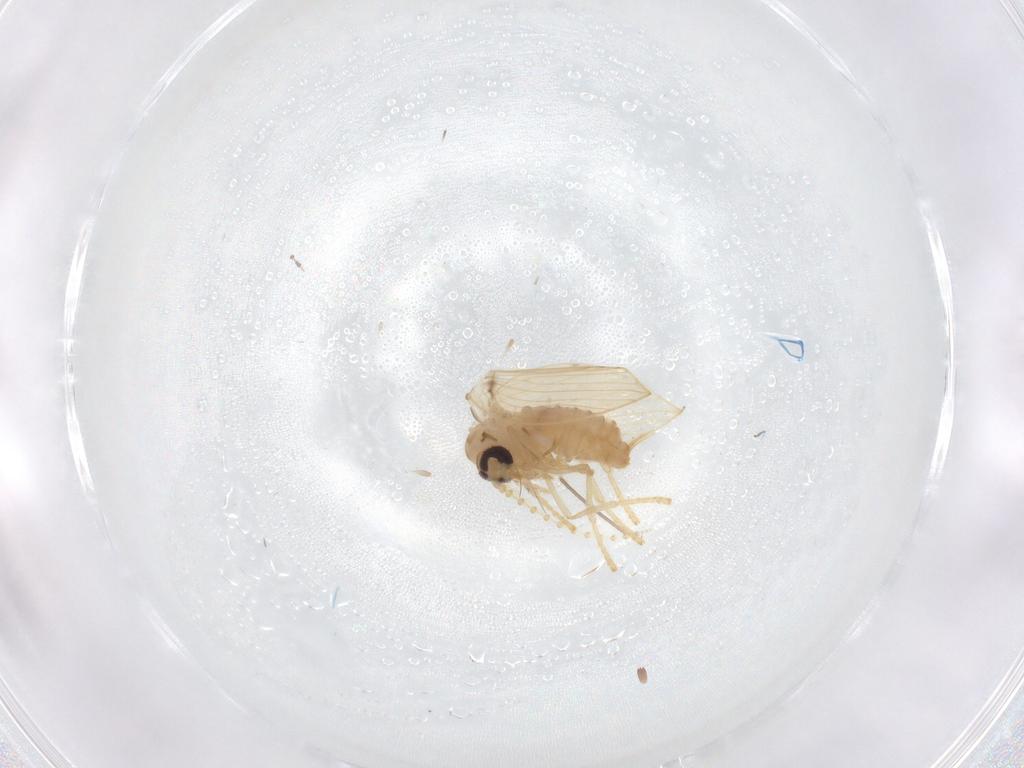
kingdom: Animalia
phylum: Arthropoda
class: Insecta
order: Diptera
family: Psychodidae
